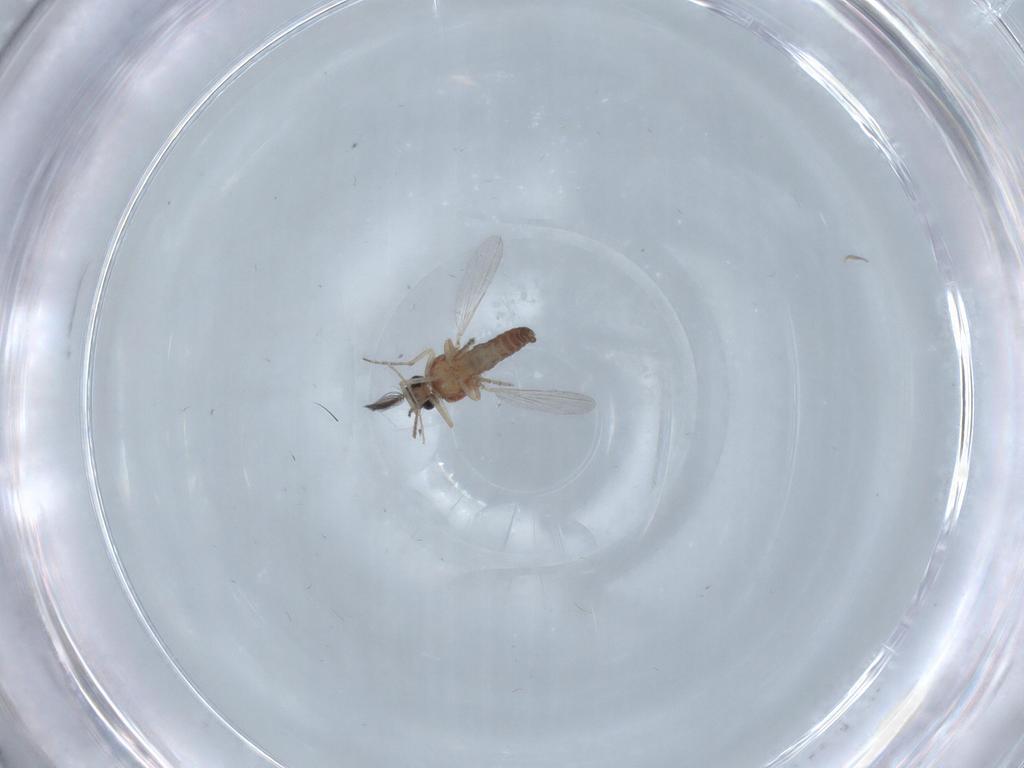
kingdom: Animalia
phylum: Arthropoda
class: Insecta
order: Diptera
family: Ceratopogonidae
